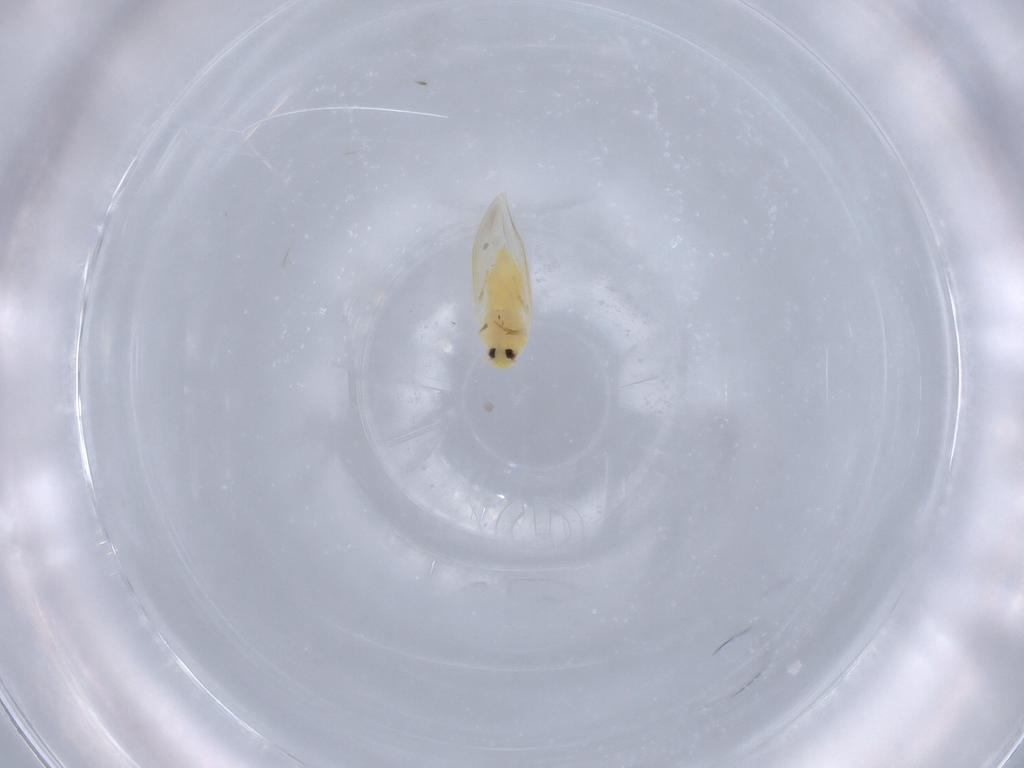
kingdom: Animalia
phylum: Arthropoda
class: Insecta
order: Hemiptera
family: Aleyrodidae
